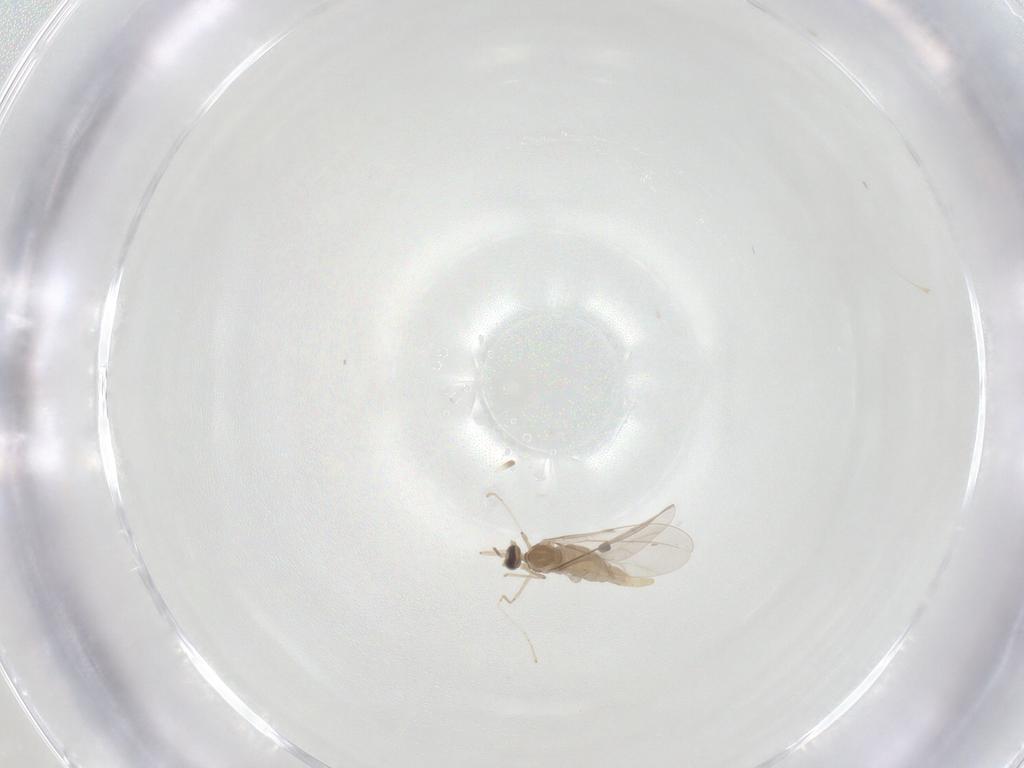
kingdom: Animalia
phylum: Arthropoda
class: Insecta
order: Diptera
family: Cecidomyiidae
